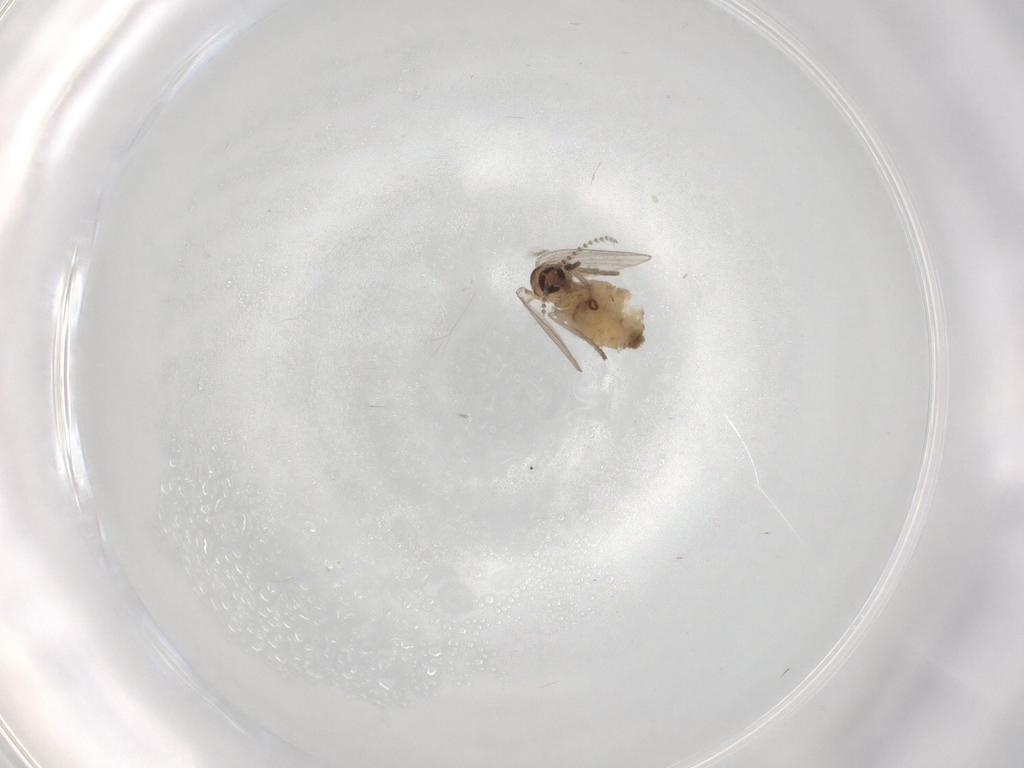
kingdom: Animalia
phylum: Arthropoda
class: Insecta
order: Diptera
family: Psychodidae
